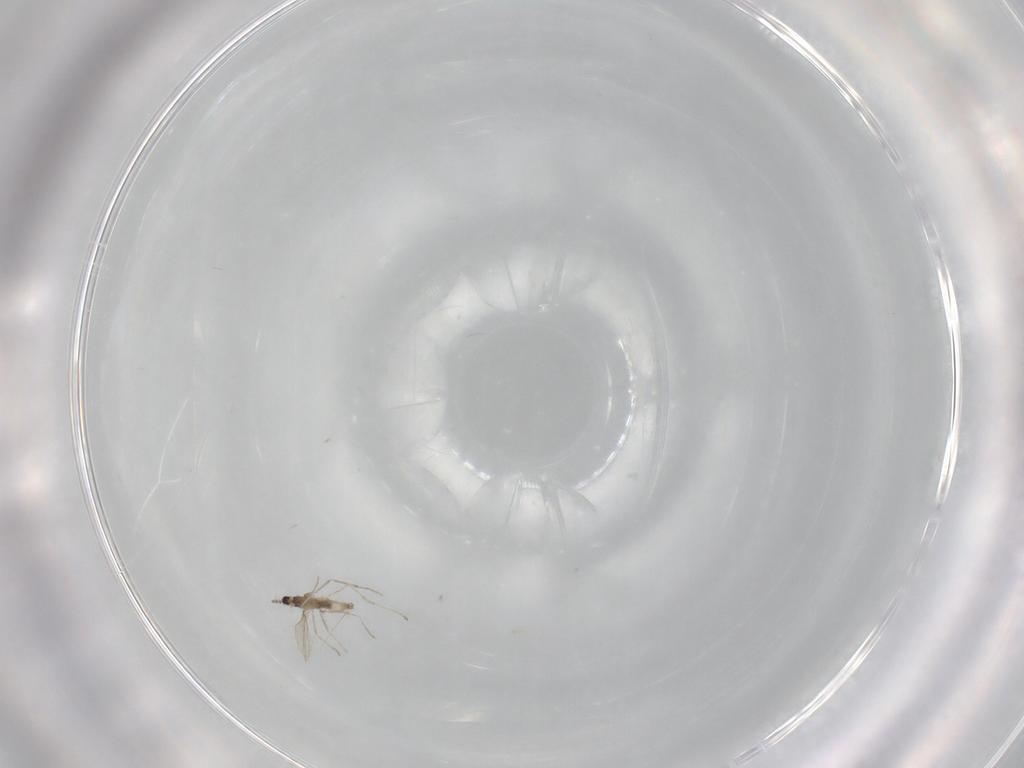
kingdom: Animalia
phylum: Arthropoda
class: Insecta
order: Diptera
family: Cecidomyiidae
